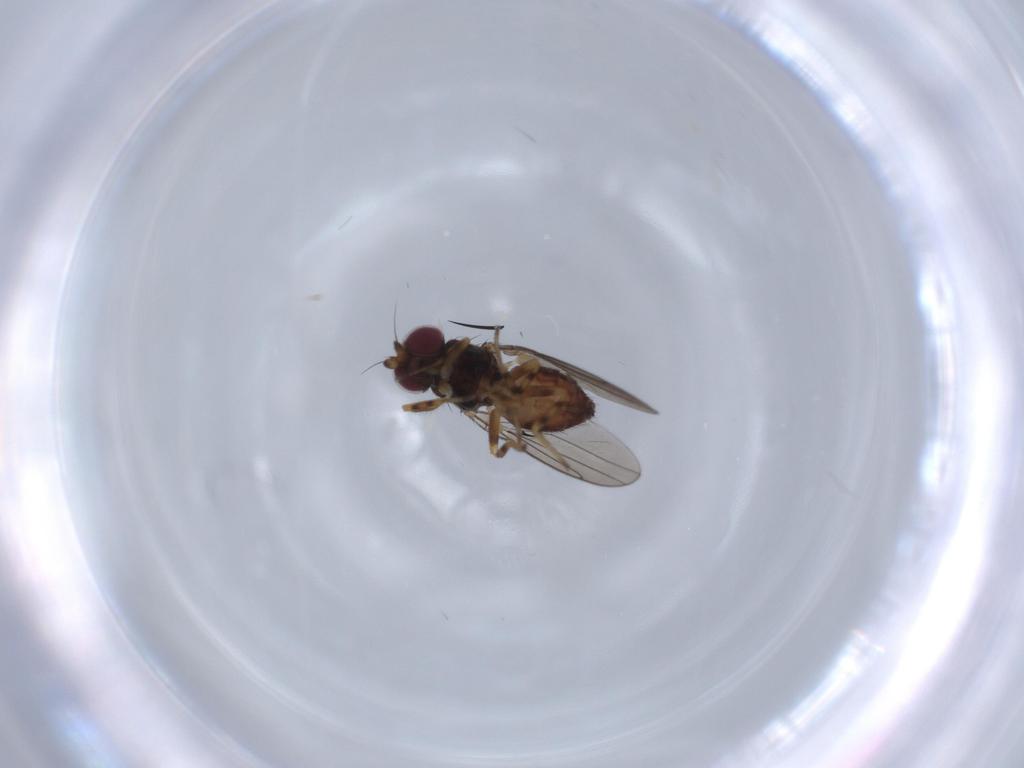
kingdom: Animalia
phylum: Arthropoda
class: Insecta
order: Diptera
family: Chloropidae
